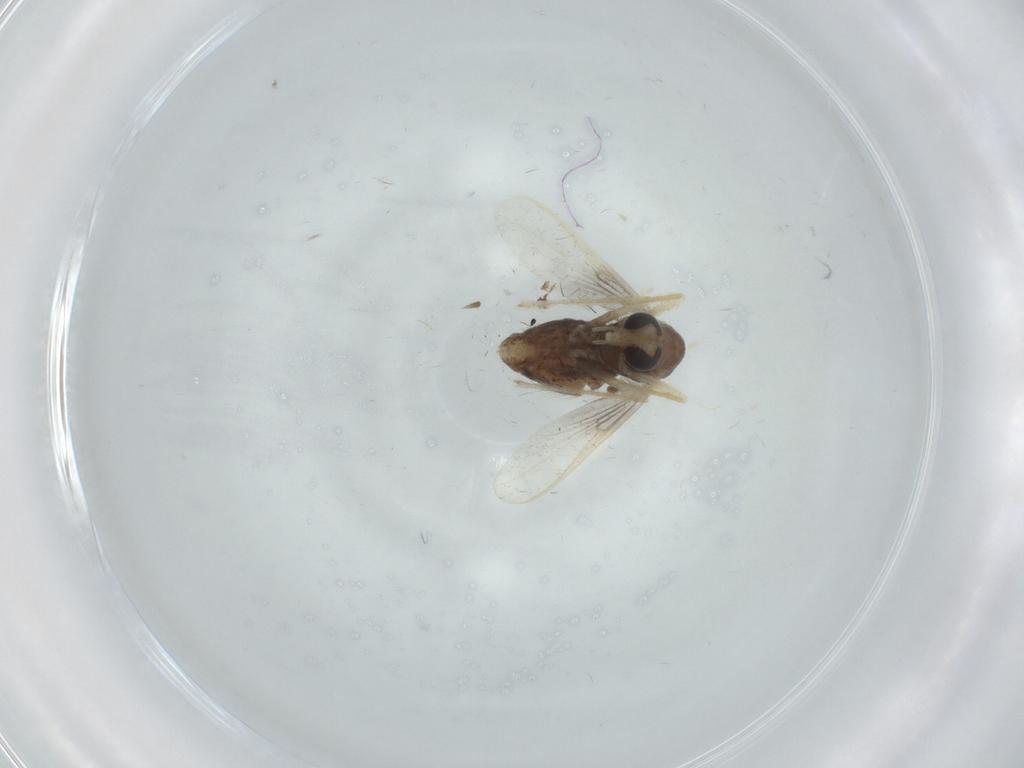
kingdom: Animalia
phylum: Arthropoda
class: Insecta
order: Diptera
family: Chironomidae
